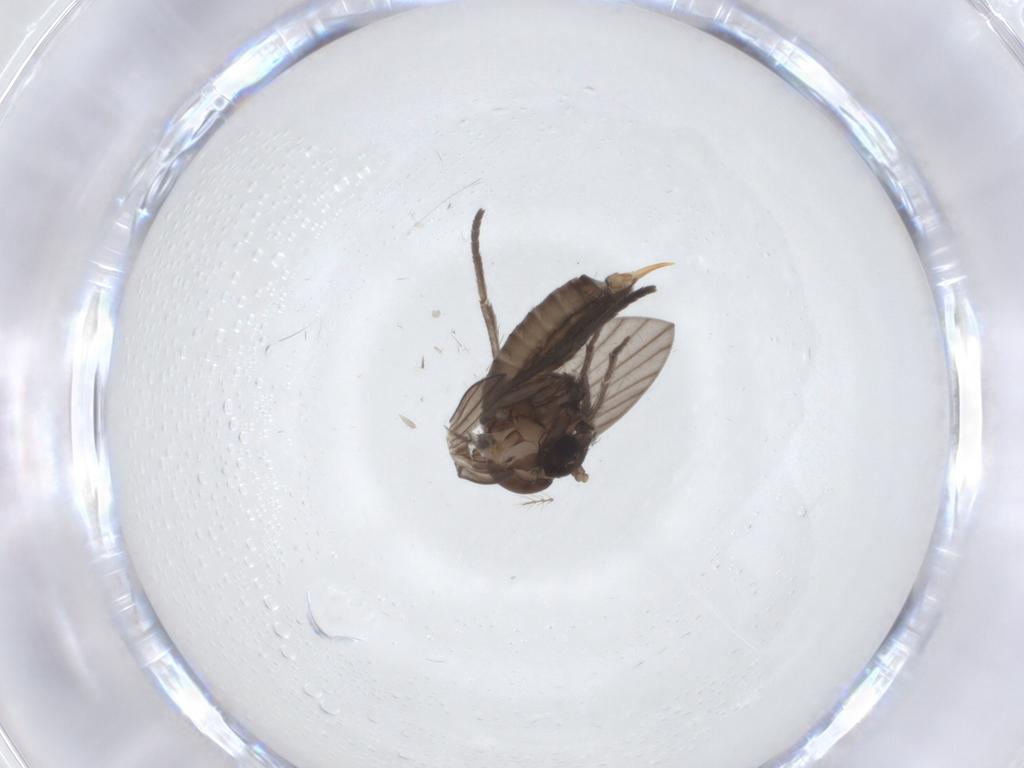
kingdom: Animalia
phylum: Arthropoda
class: Insecta
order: Diptera
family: Psychodidae
